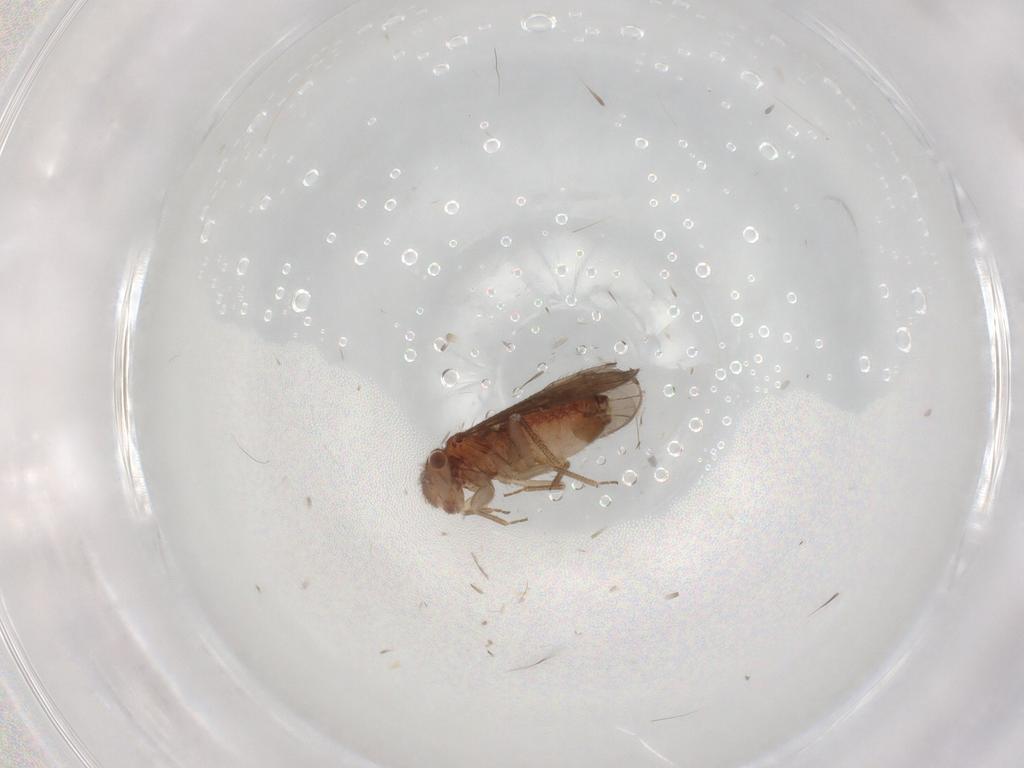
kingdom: Animalia
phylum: Arthropoda
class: Insecta
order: Psocodea
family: Ectopsocidae
